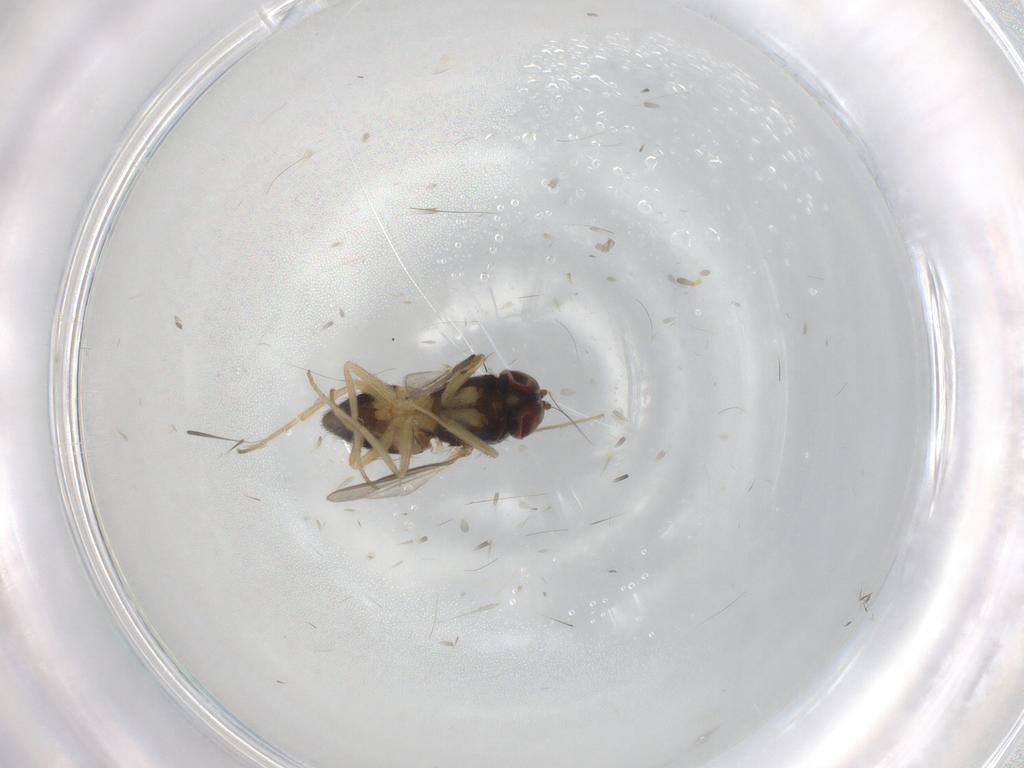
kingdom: Animalia
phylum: Arthropoda
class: Insecta
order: Diptera
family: Dolichopodidae
